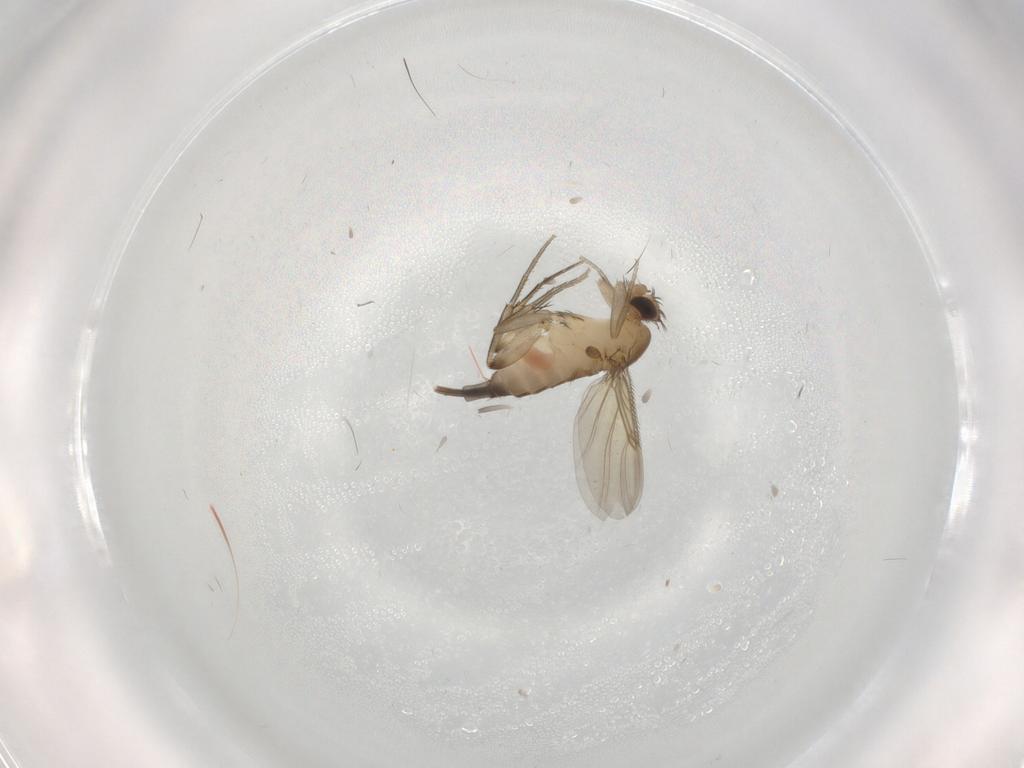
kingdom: Animalia
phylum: Arthropoda
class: Insecta
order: Diptera
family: Phoridae
